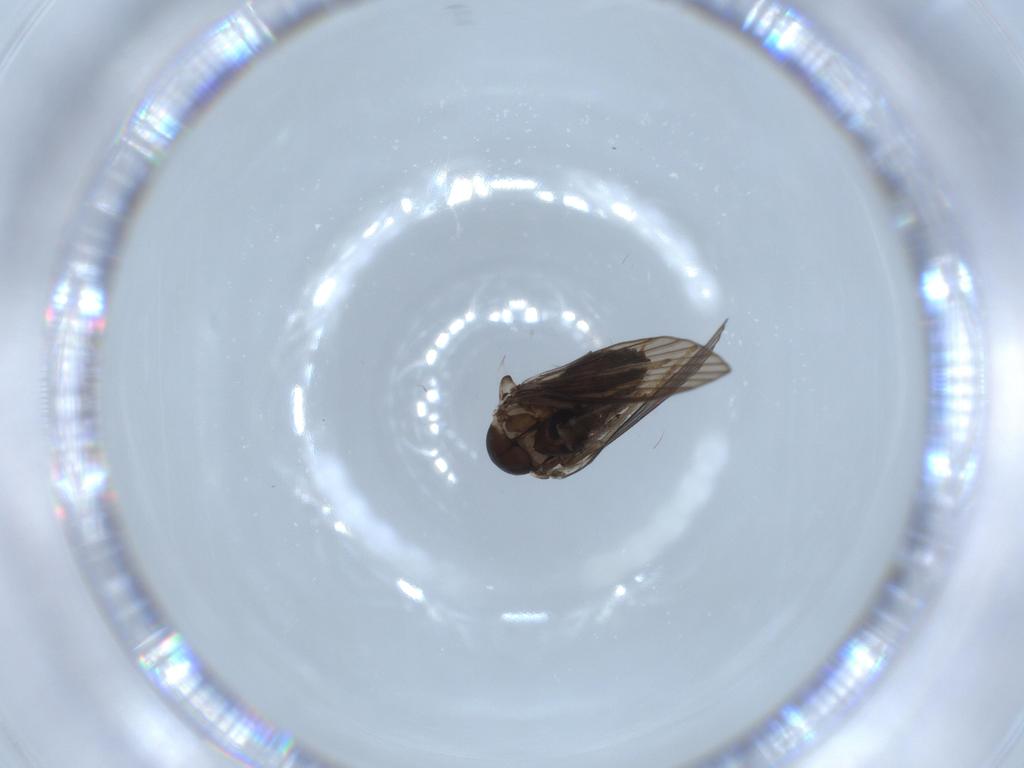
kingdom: Animalia
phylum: Arthropoda
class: Insecta
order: Diptera
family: Psychodidae
